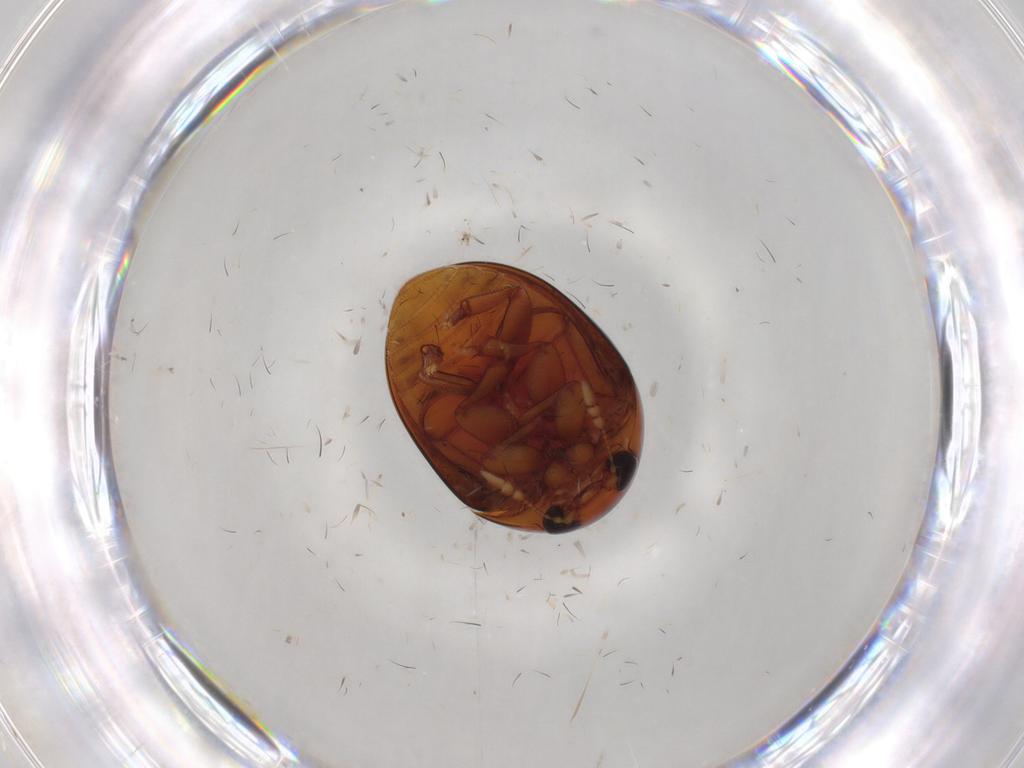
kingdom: Animalia
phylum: Arthropoda
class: Insecta
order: Coleoptera
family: Phalacridae
